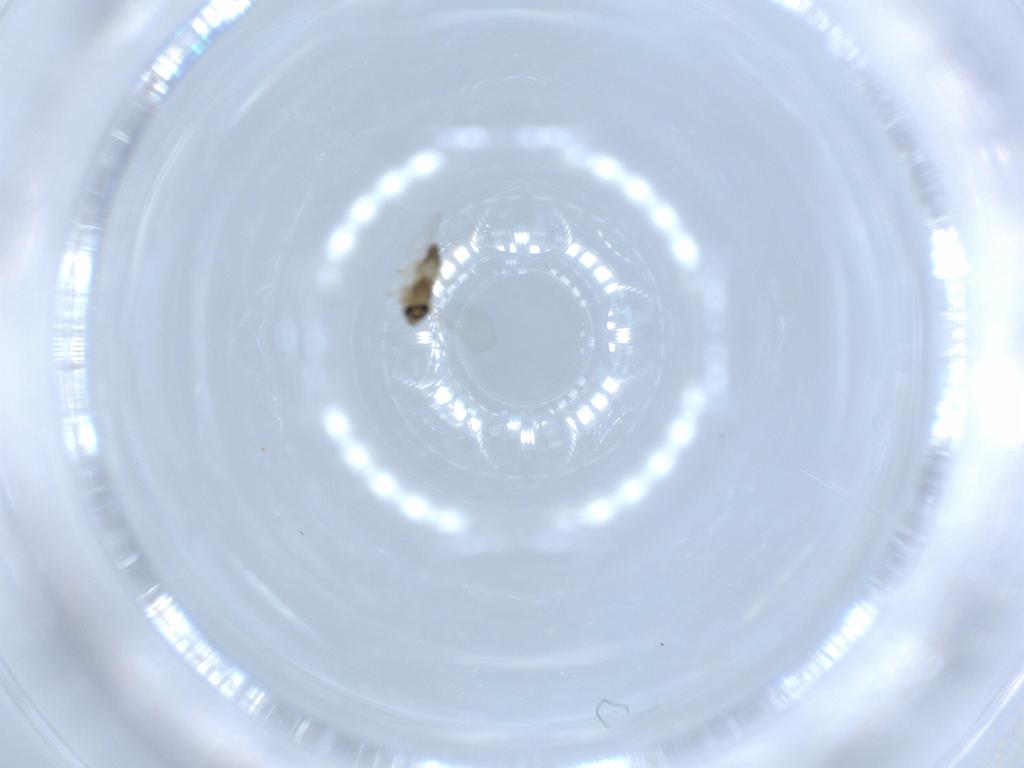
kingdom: Animalia
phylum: Arthropoda
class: Insecta
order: Diptera
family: Chironomidae
